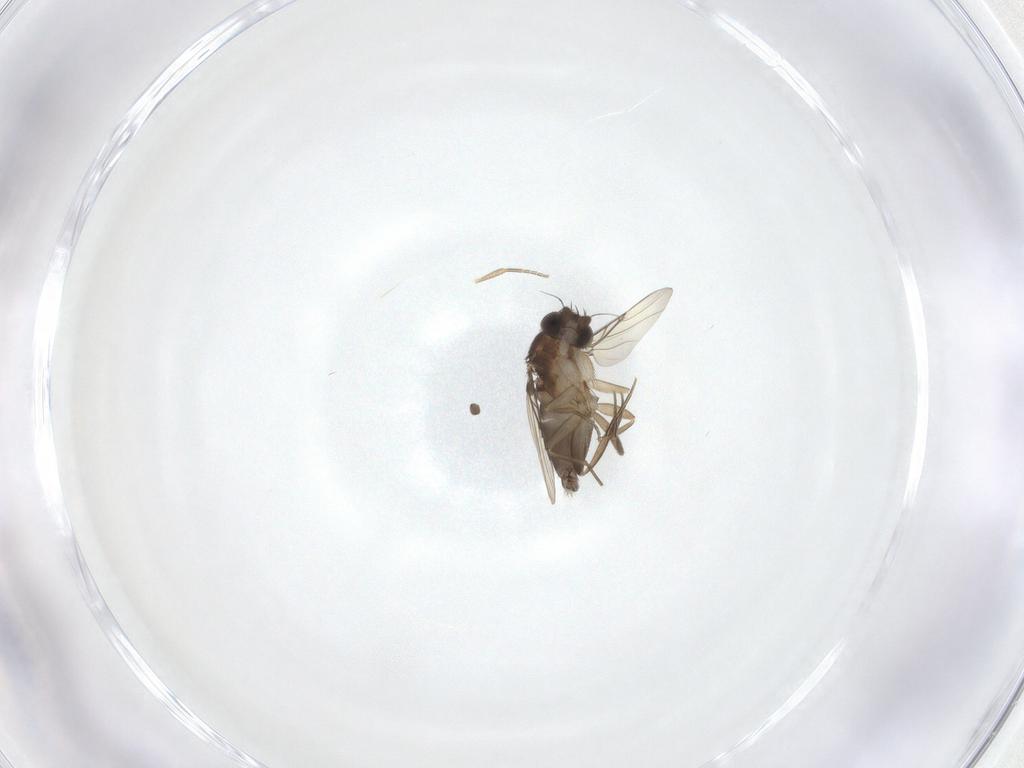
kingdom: Animalia
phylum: Arthropoda
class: Insecta
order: Diptera
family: Phoridae
